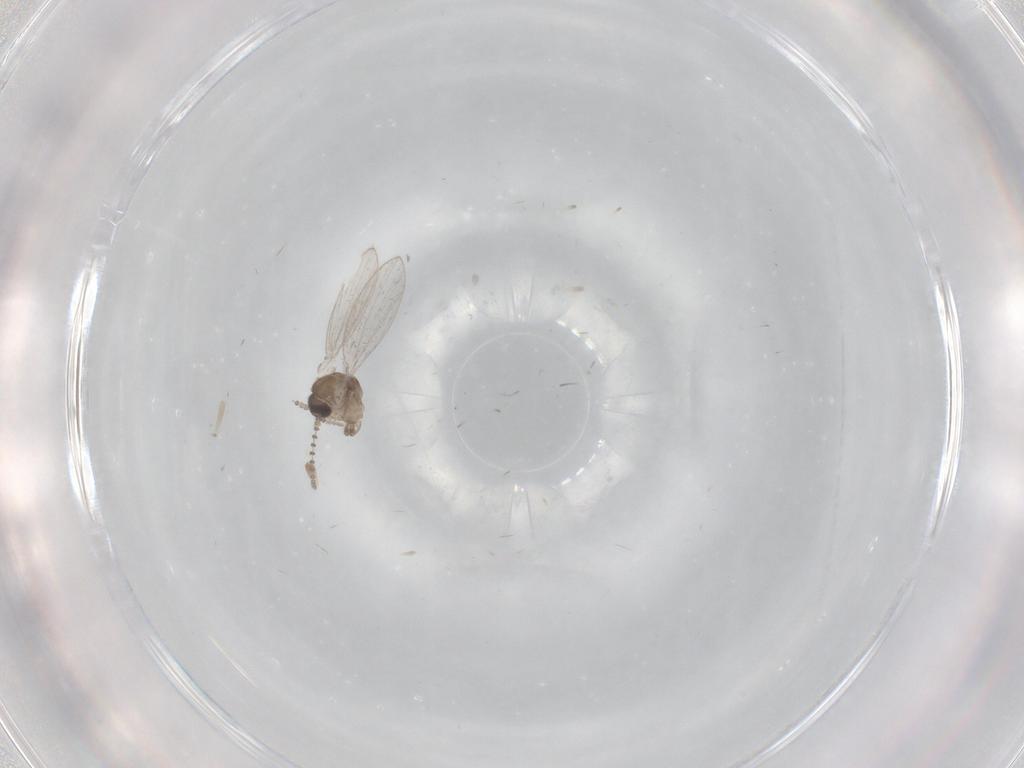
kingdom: Animalia
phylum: Arthropoda
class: Insecta
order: Diptera
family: Psychodidae
